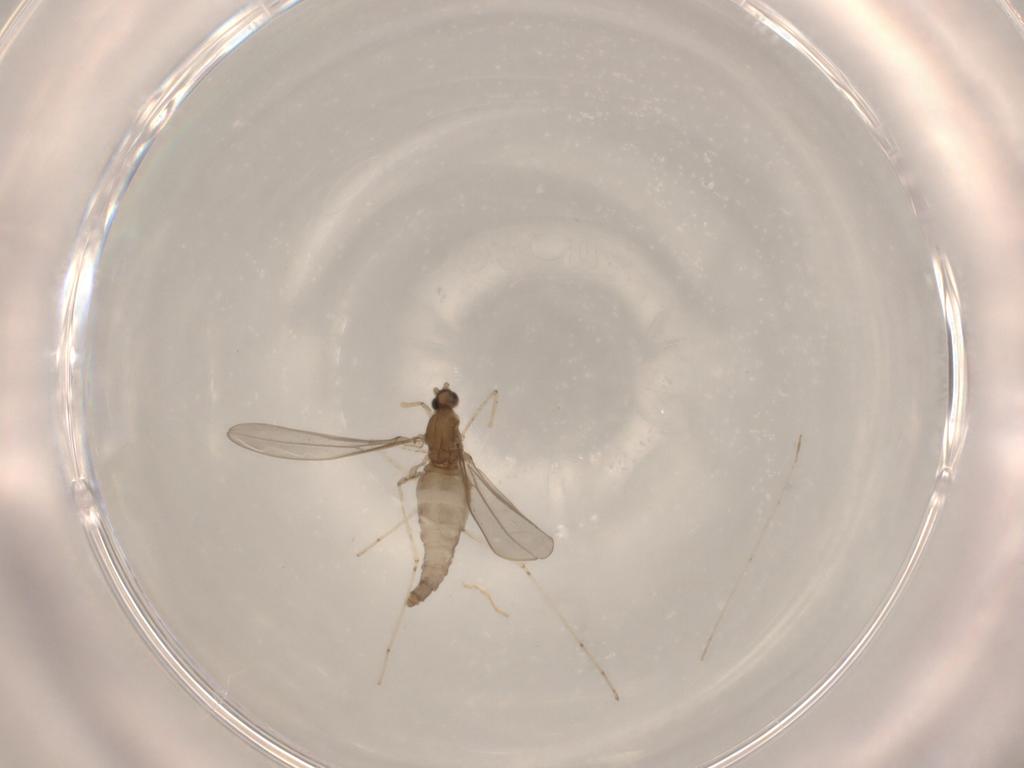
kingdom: Animalia
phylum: Arthropoda
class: Insecta
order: Diptera
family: Cecidomyiidae
